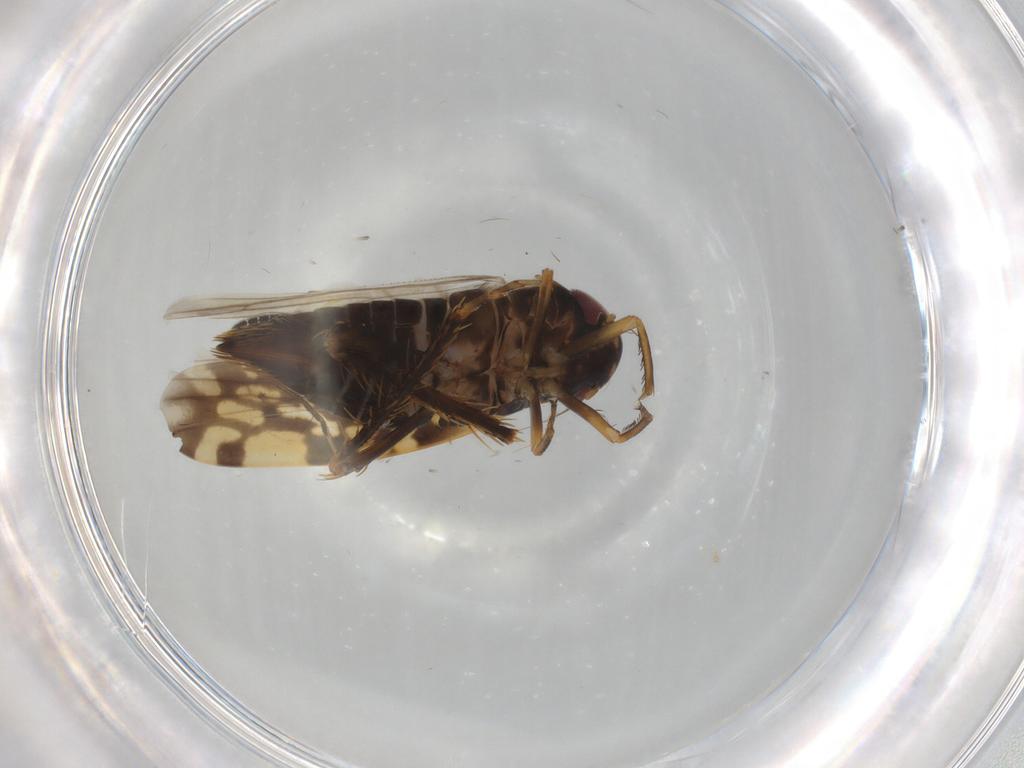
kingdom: Animalia
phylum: Arthropoda
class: Insecta
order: Hemiptera
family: Cicadellidae
